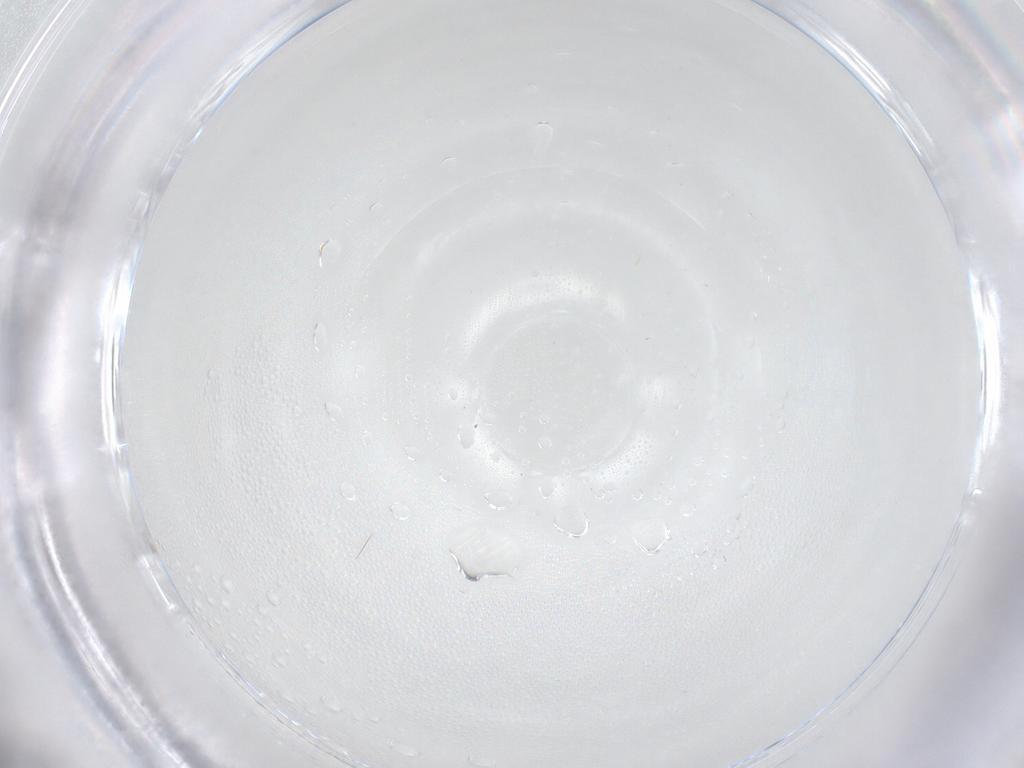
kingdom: Animalia
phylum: Arthropoda
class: Insecta
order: Diptera
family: Cecidomyiidae
